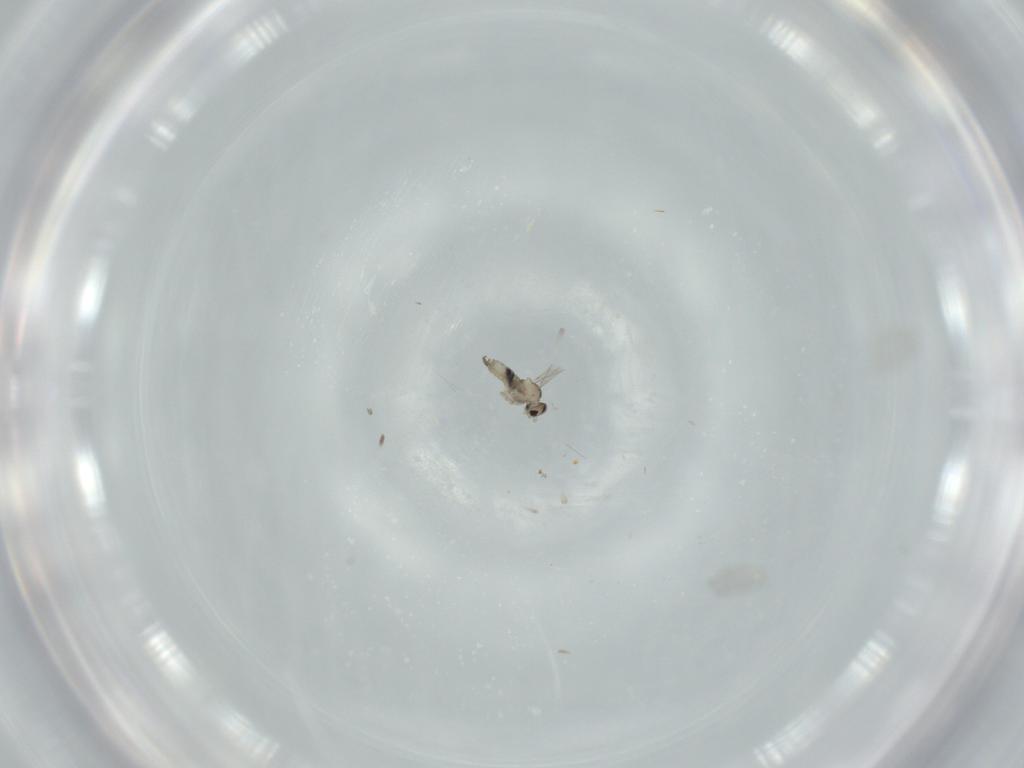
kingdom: Animalia
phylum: Arthropoda
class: Insecta
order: Diptera
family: Cecidomyiidae
